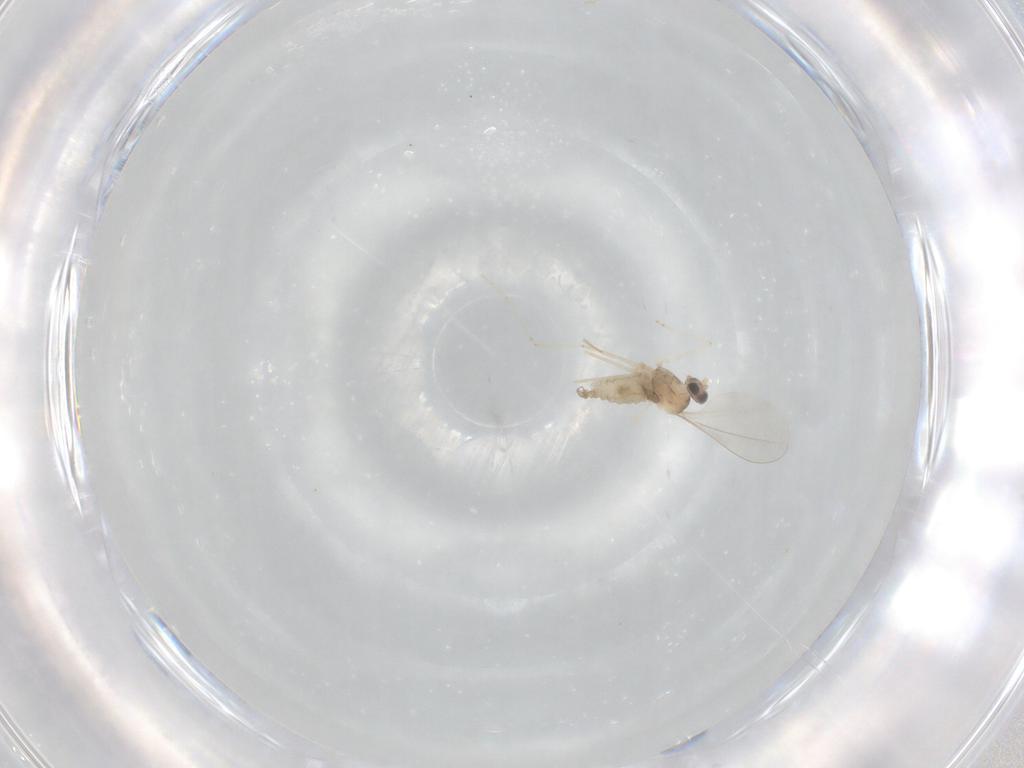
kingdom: Animalia
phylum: Arthropoda
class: Insecta
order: Diptera
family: Cecidomyiidae
